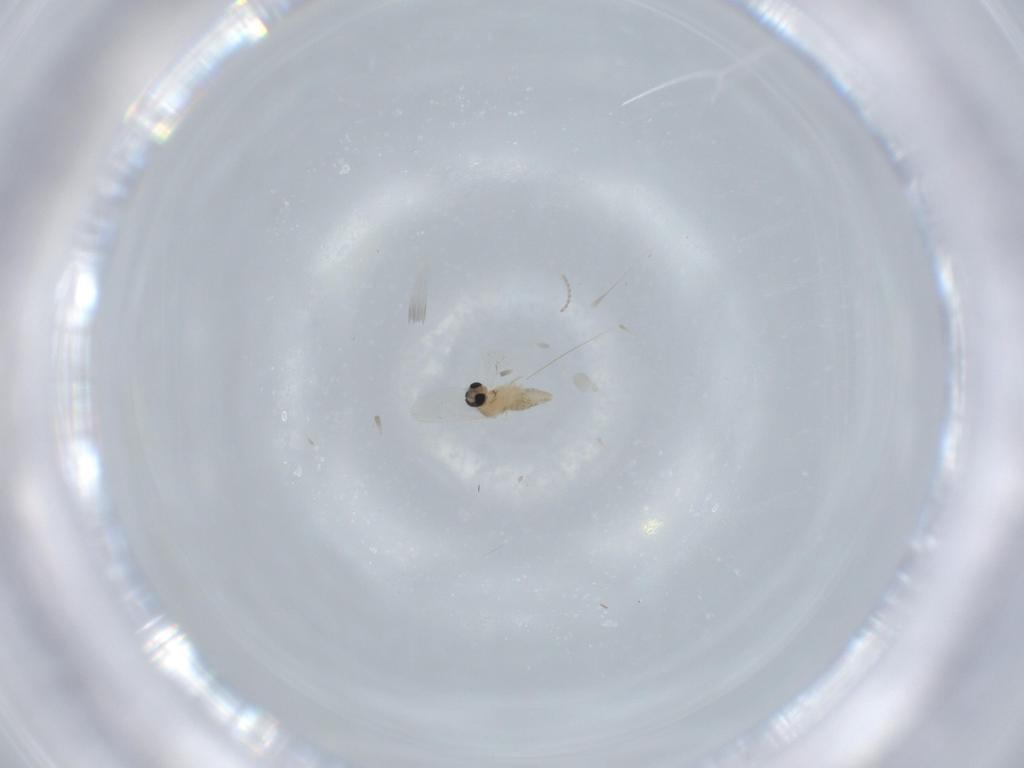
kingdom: Animalia
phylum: Arthropoda
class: Insecta
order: Diptera
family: Cecidomyiidae
